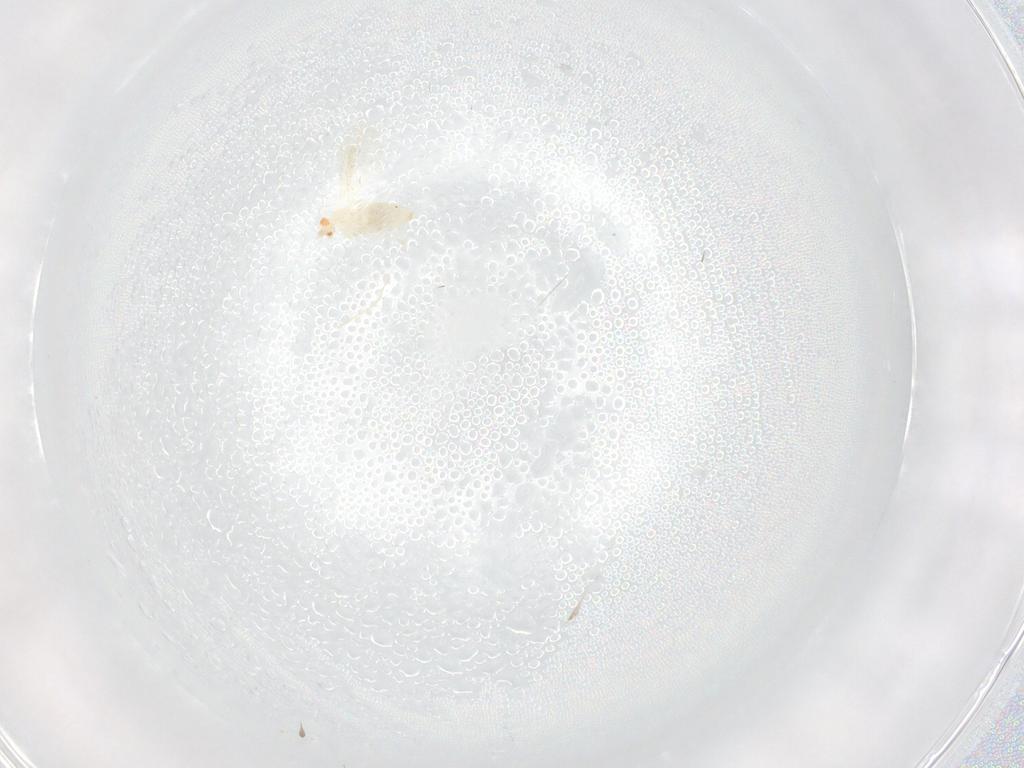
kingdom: Animalia
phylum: Arthropoda
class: Insecta
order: Diptera
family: Cecidomyiidae
